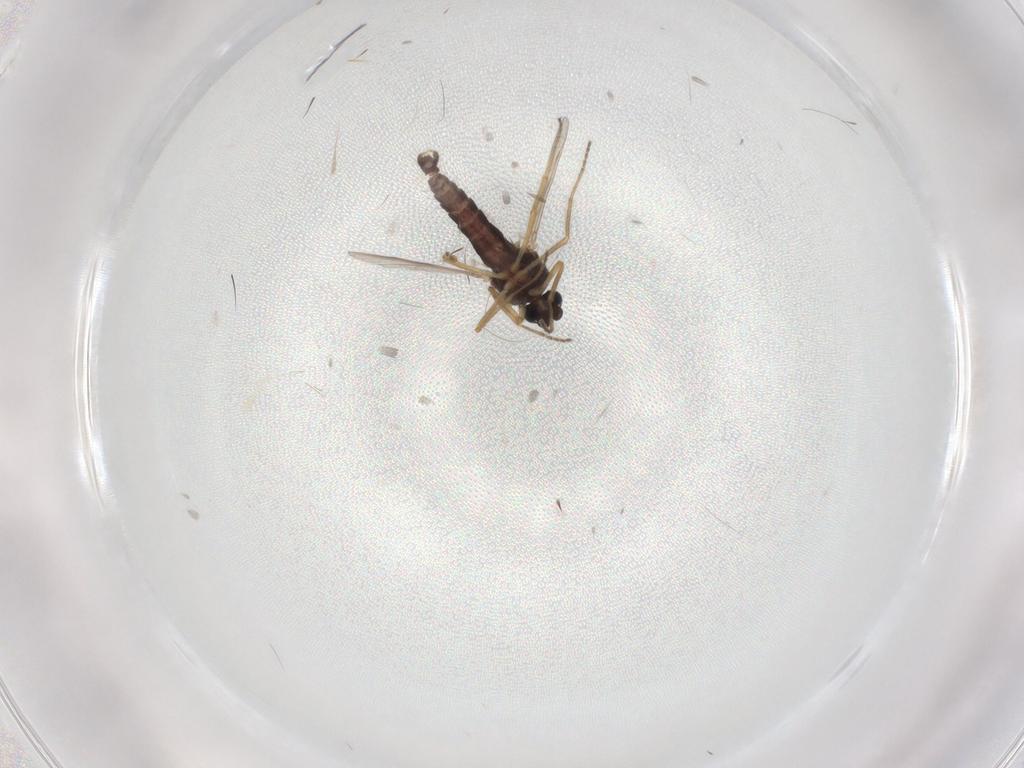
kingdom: Animalia
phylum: Arthropoda
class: Insecta
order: Diptera
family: Ceratopogonidae
